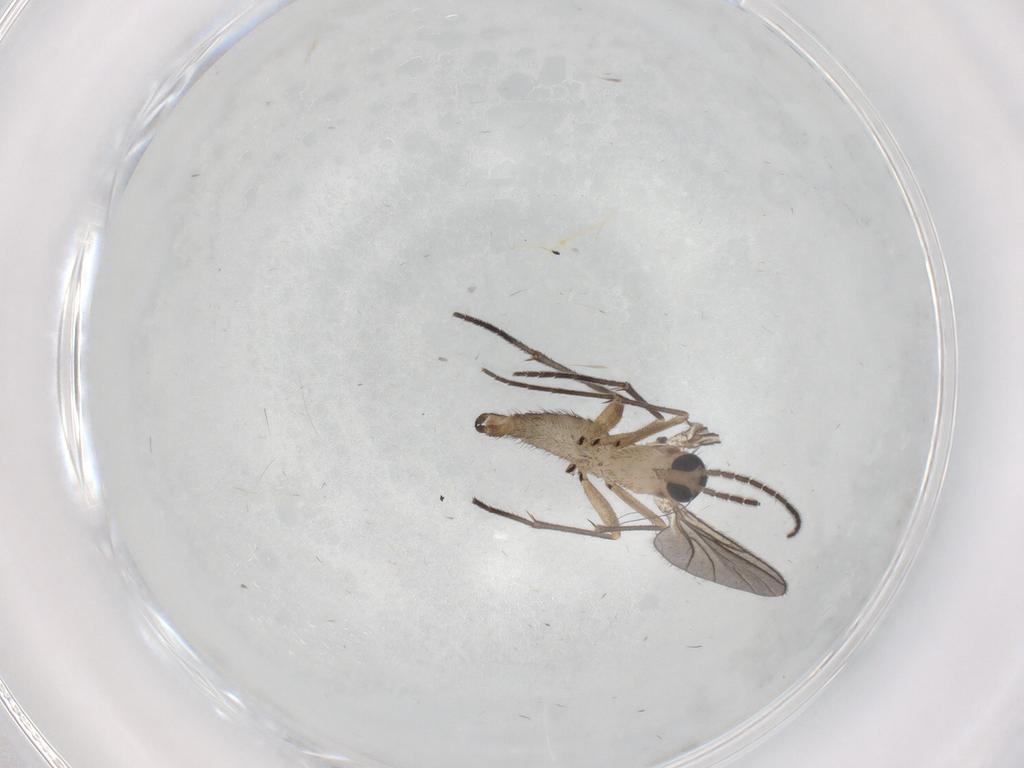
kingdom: Animalia
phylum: Arthropoda
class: Insecta
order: Diptera
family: Sciaridae
